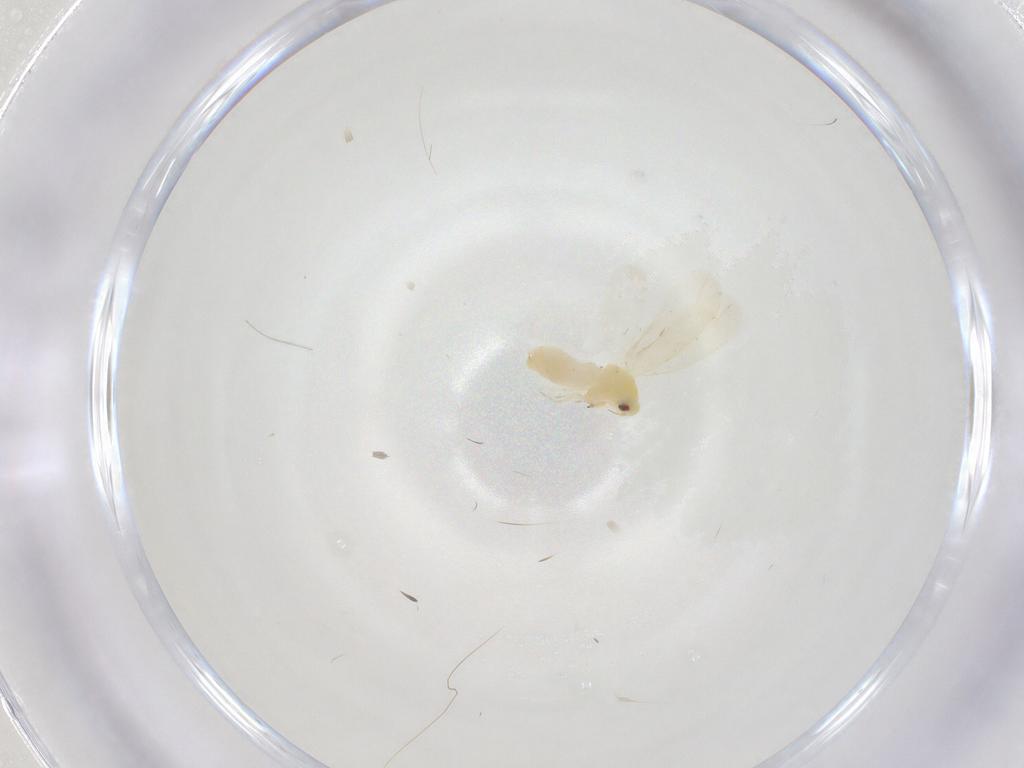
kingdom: Animalia
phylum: Arthropoda
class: Insecta
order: Hemiptera
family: Aleyrodidae
